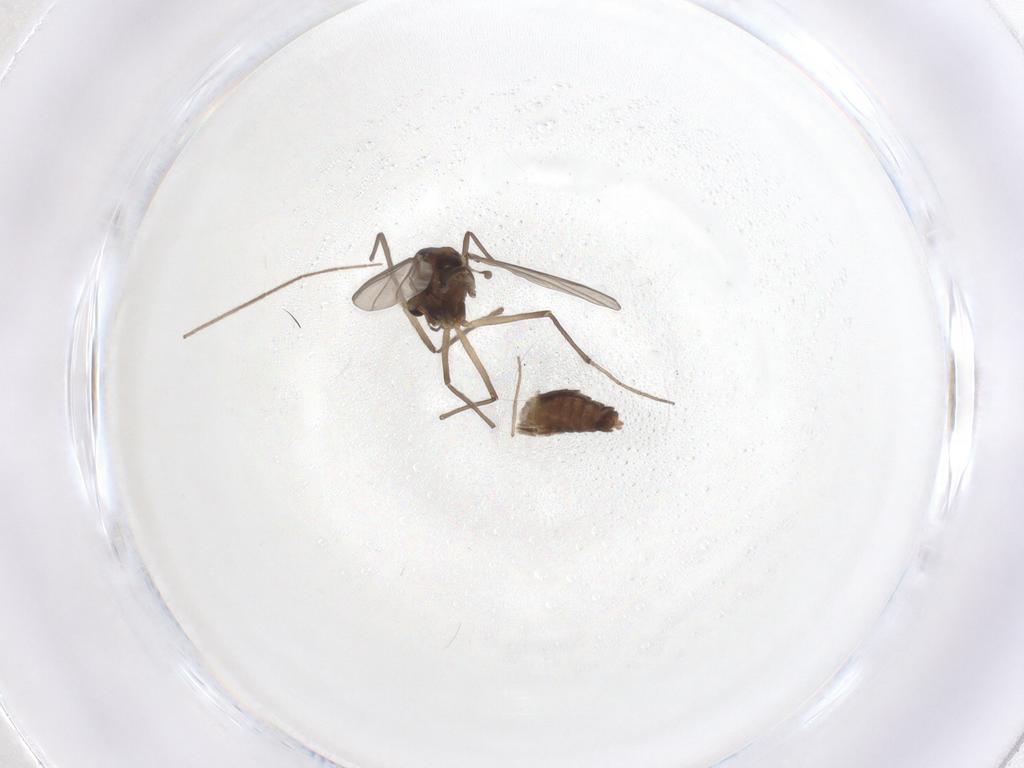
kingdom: Animalia
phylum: Arthropoda
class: Insecta
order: Diptera
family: Chironomidae
